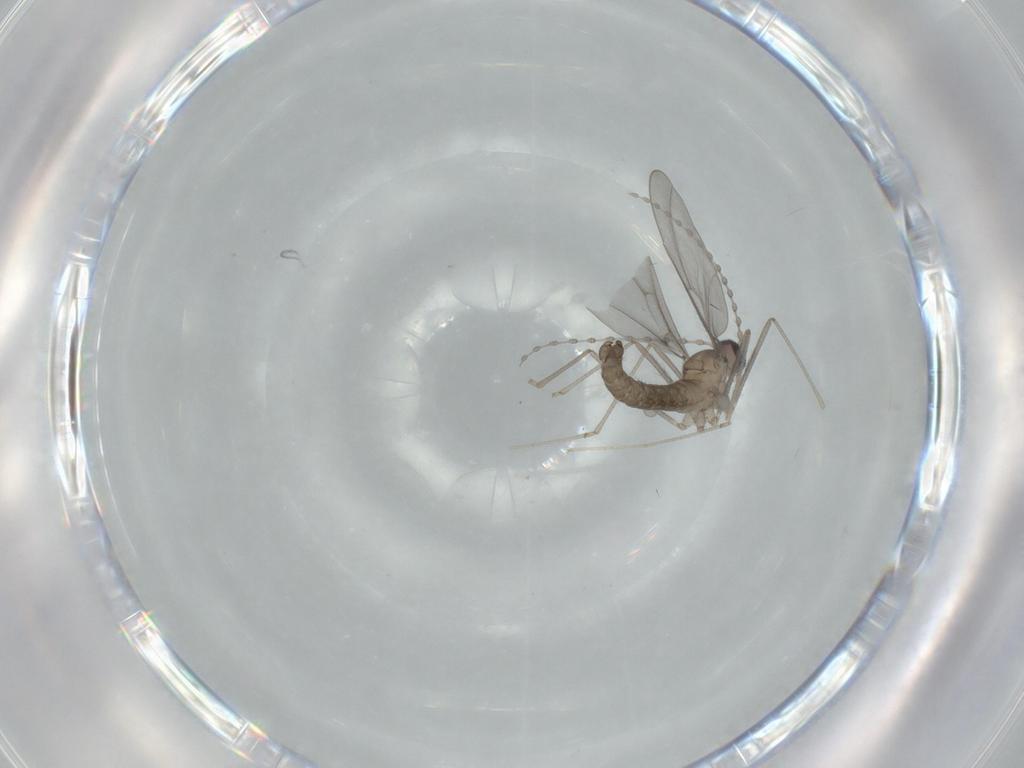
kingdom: Animalia
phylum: Arthropoda
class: Insecta
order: Diptera
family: Cecidomyiidae
